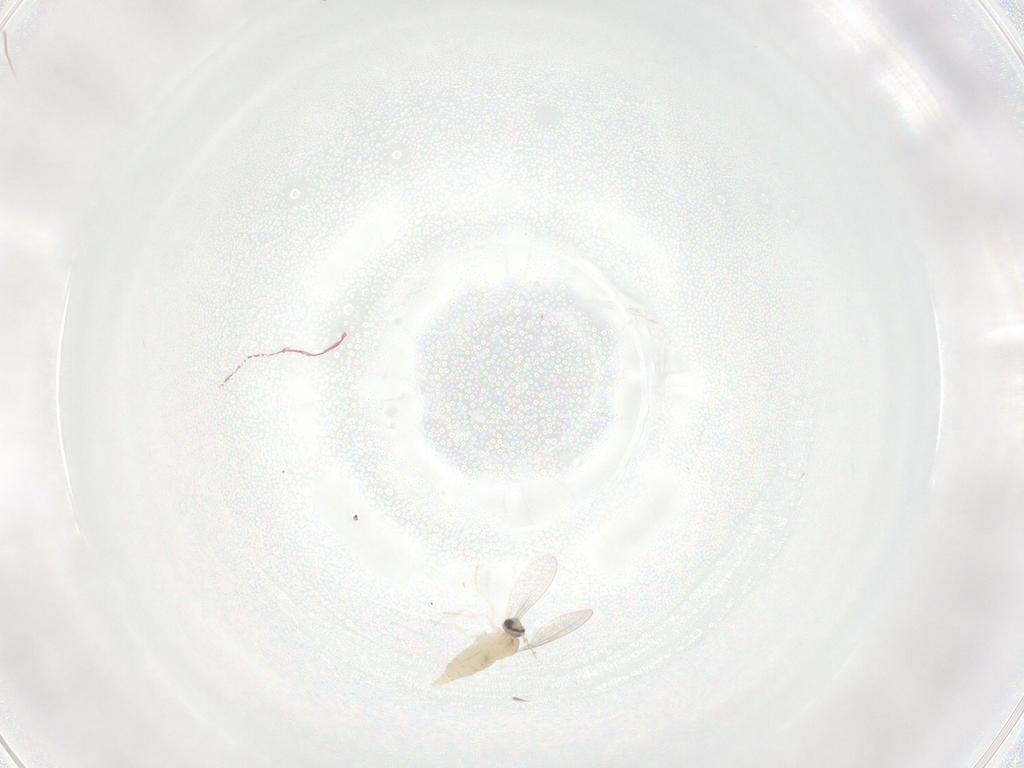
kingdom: Animalia
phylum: Arthropoda
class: Insecta
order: Diptera
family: Cecidomyiidae
